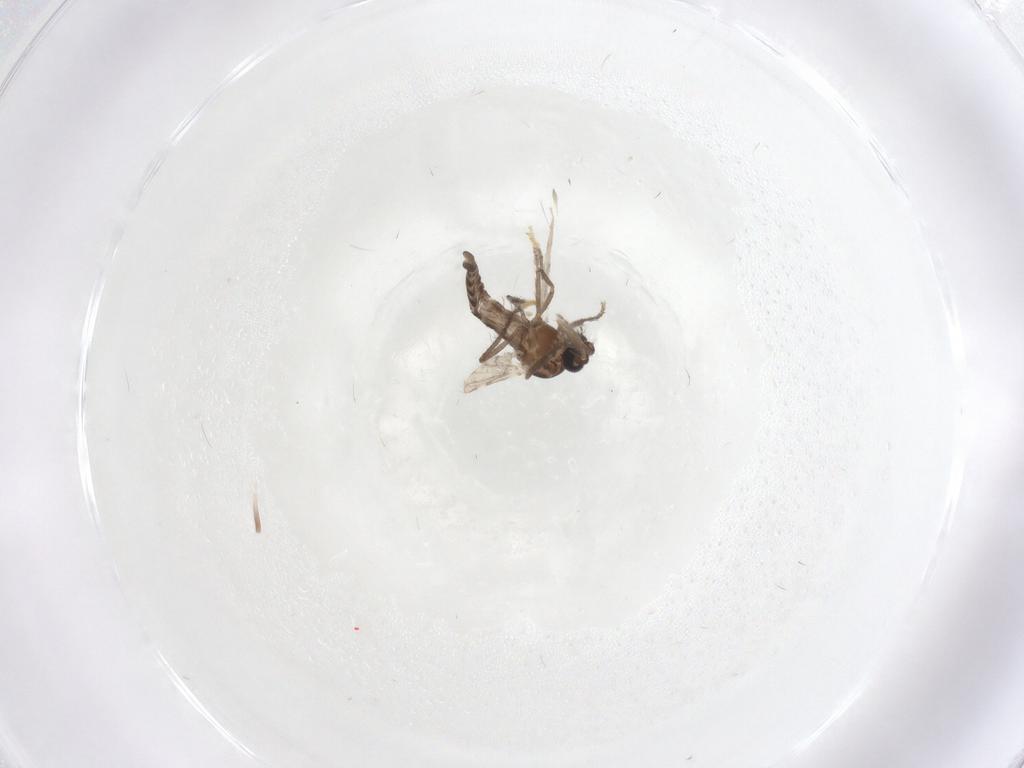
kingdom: Animalia
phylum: Arthropoda
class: Insecta
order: Diptera
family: Ceratopogonidae
